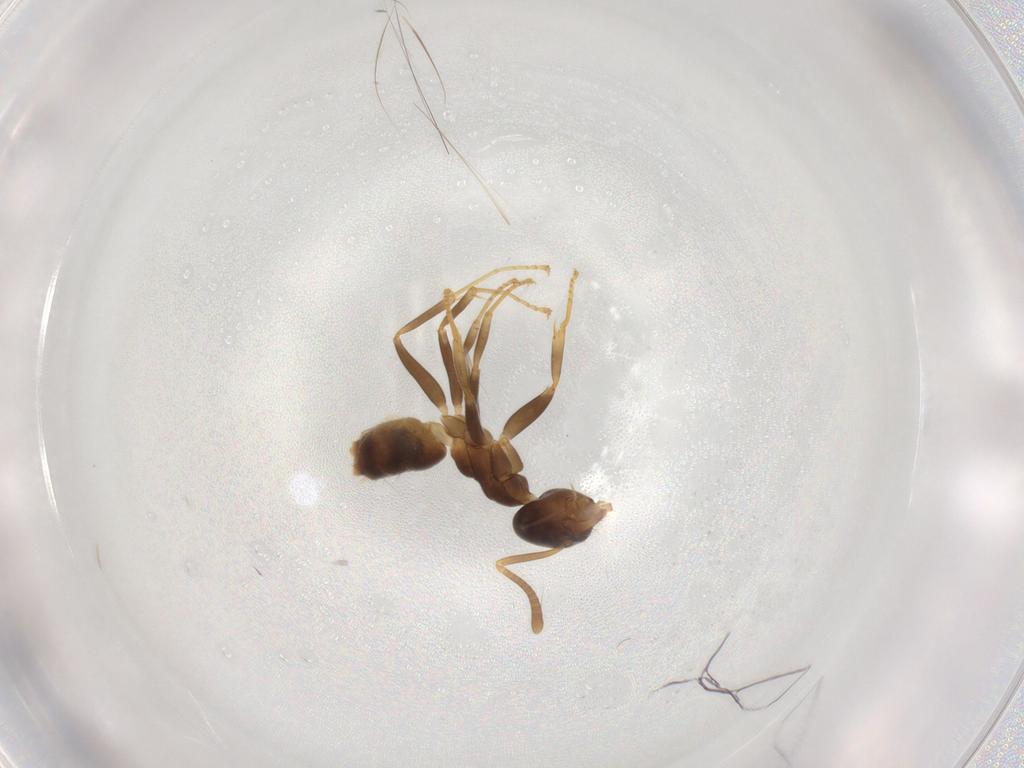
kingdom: Animalia
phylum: Arthropoda
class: Insecta
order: Hymenoptera
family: Formicidae
